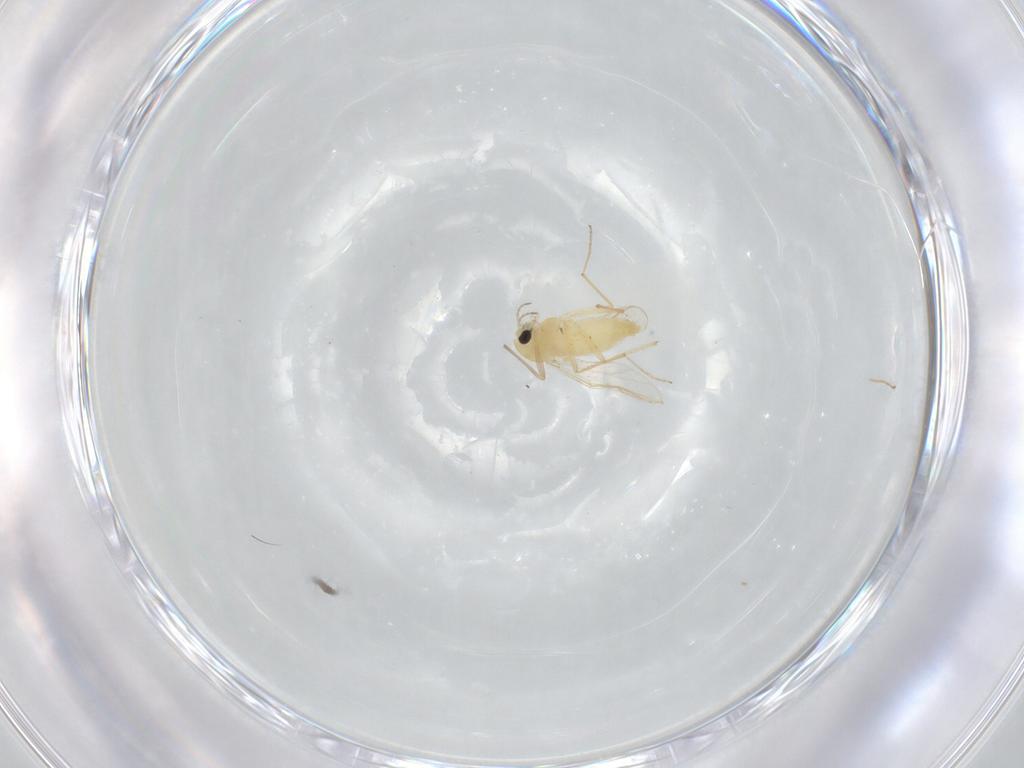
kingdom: Animalia
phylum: Arthropoda
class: Insecta
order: Diptera
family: Chironomidae
